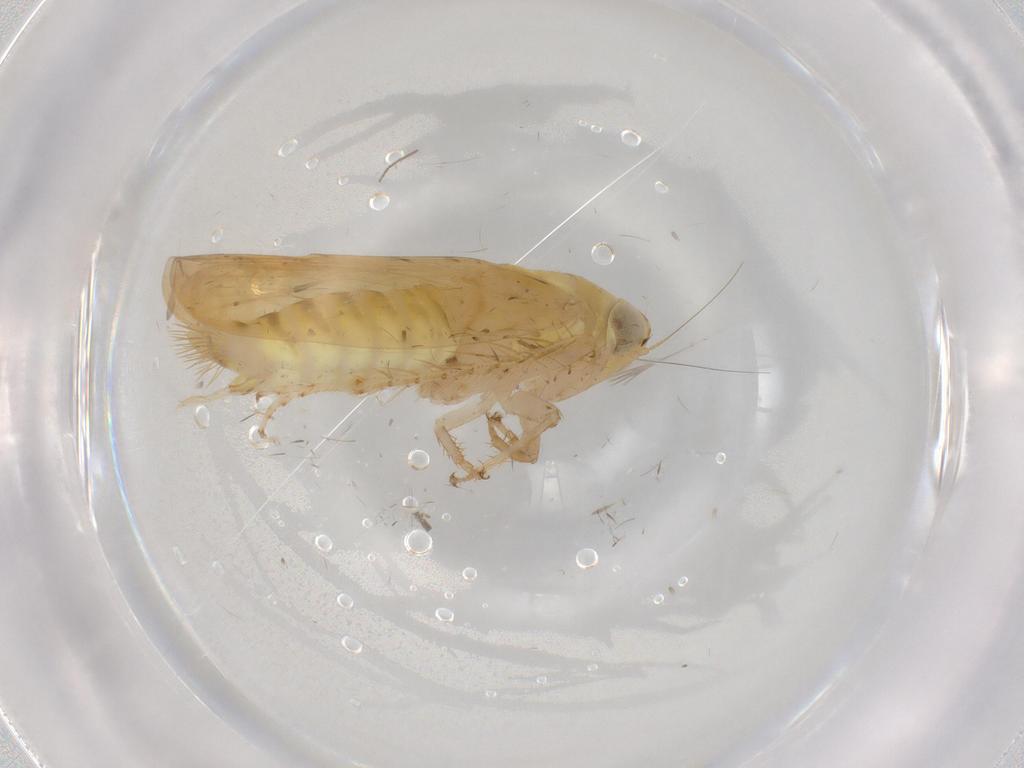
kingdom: Animalia
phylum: Arthropoda
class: Insecta
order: Hemiptera
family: Cicadellidae
